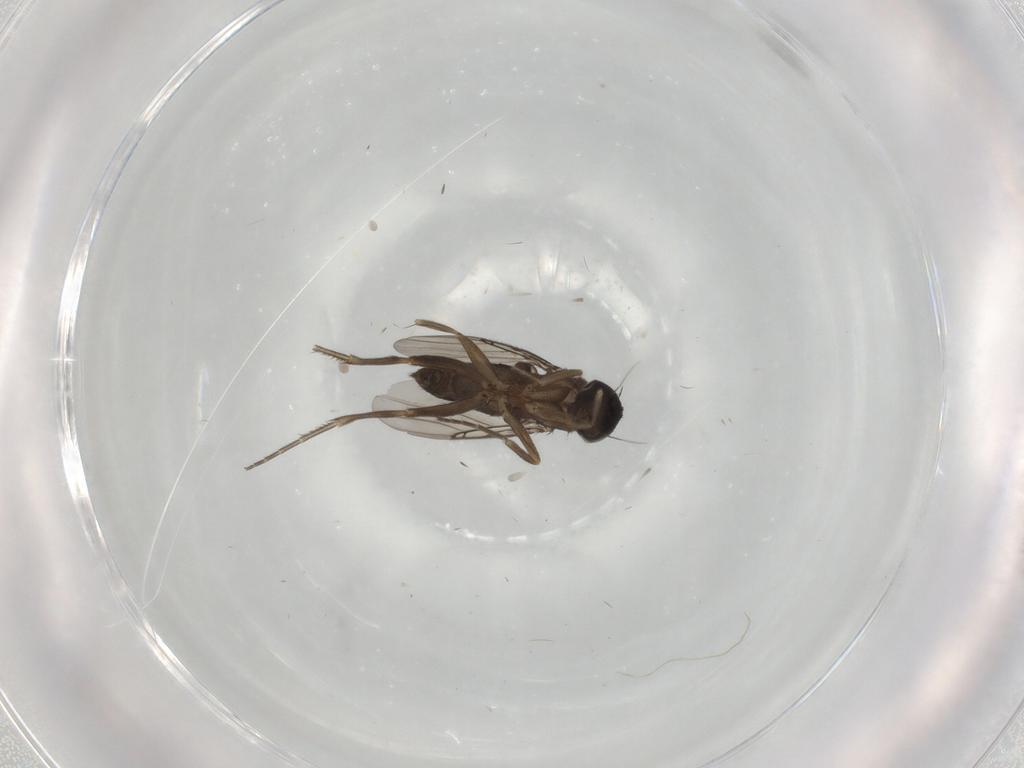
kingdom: Animalia
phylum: Arthropoda
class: Insecta
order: Diptera
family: Phoridae
